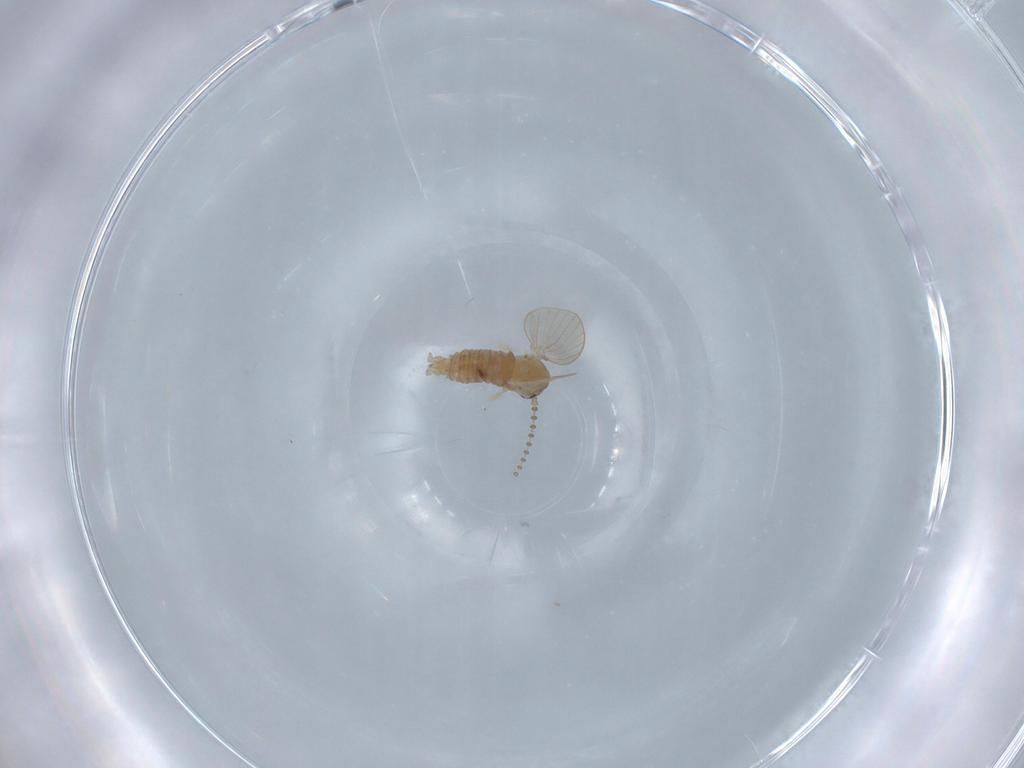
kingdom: Animalia
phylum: Arthropoda
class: Insecta
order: Diptera
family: Psychodidae
